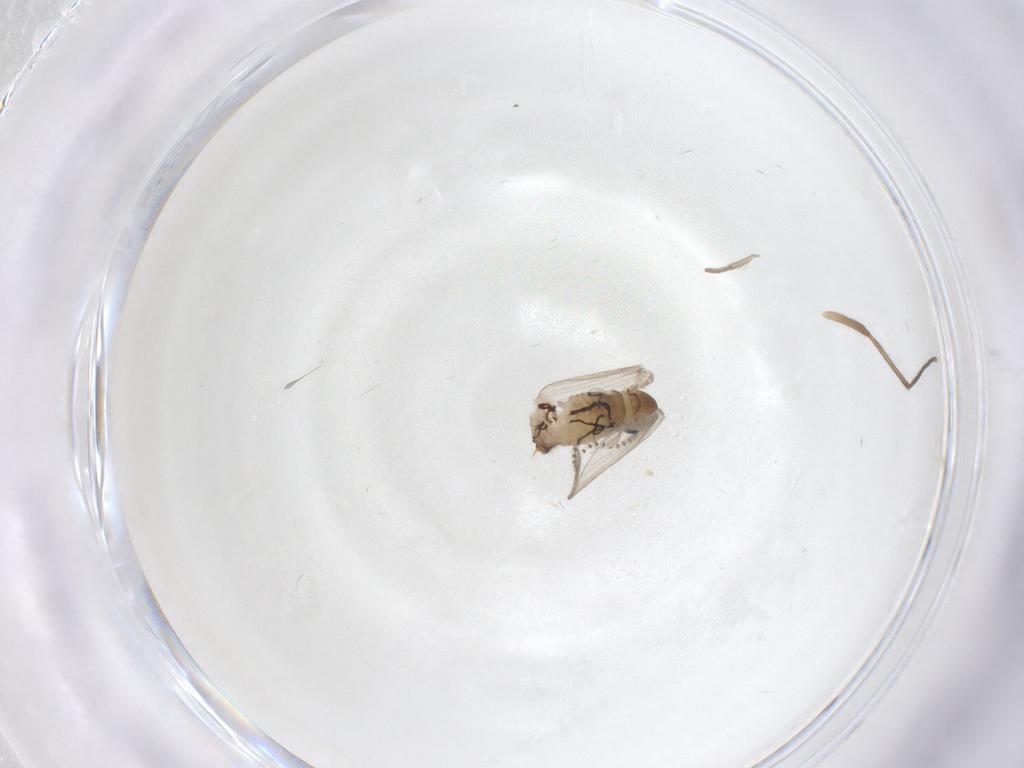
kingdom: Animalia
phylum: Arthropoda
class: Insecta
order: Diptera
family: Psychodidae
